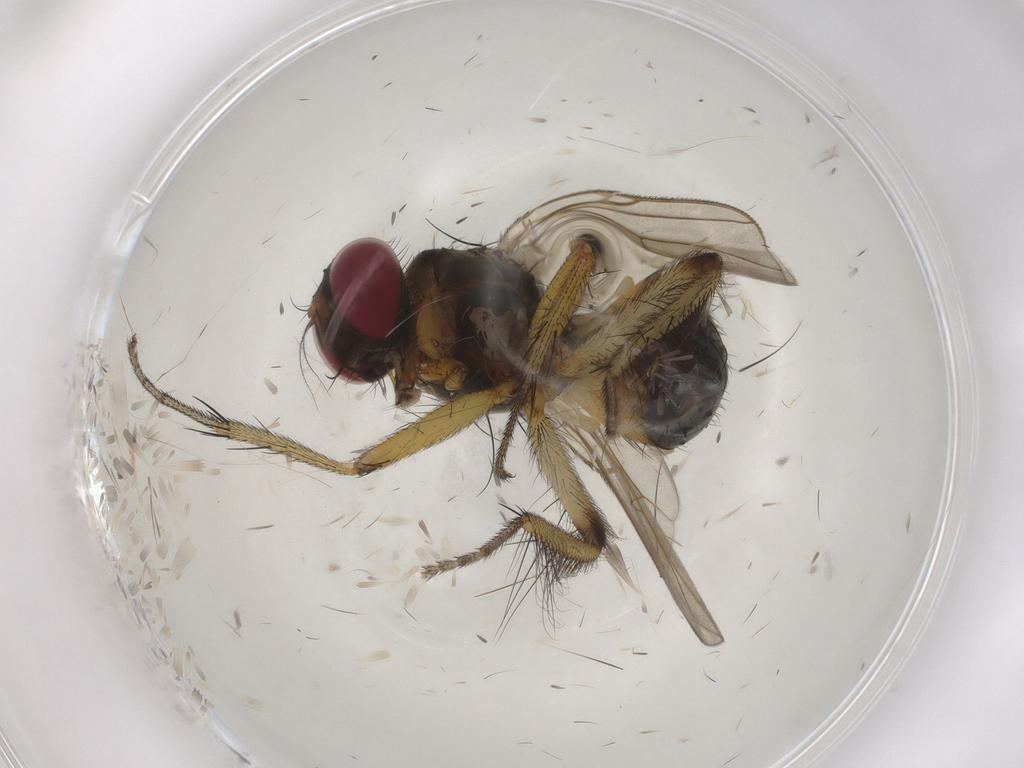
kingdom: Animalia
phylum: Arthropoda
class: Insecta
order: Diptera
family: Muscidae
